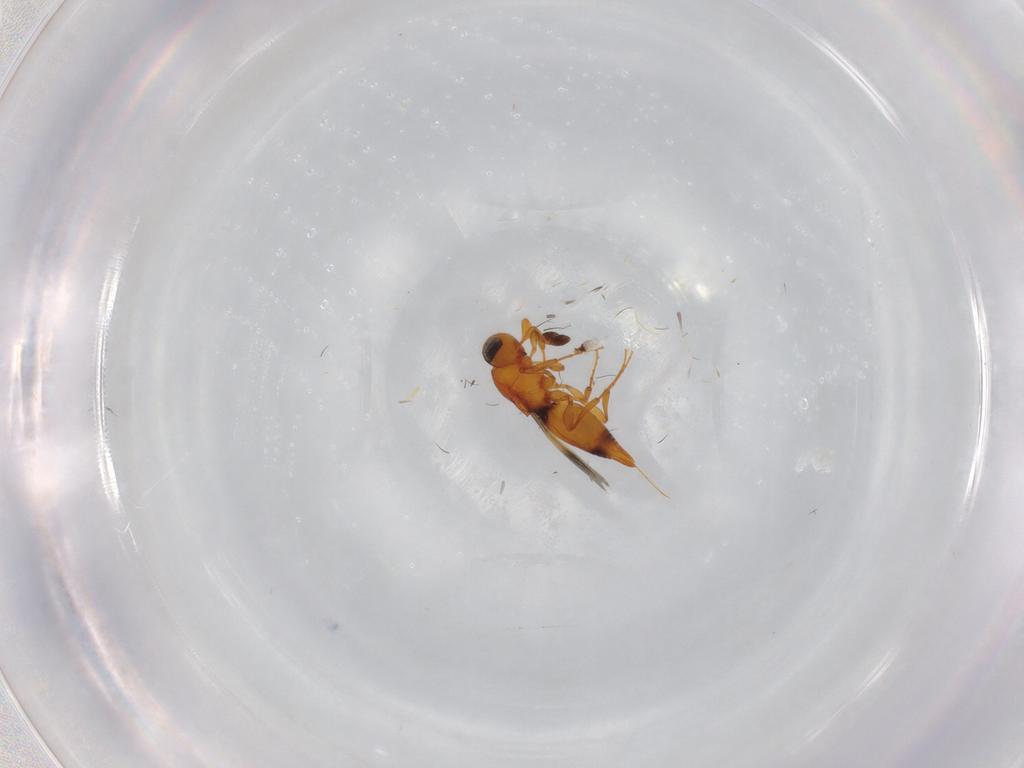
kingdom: Animalia
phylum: Arthropoda
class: Insecta
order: Hymenoptera
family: Platygastridae
